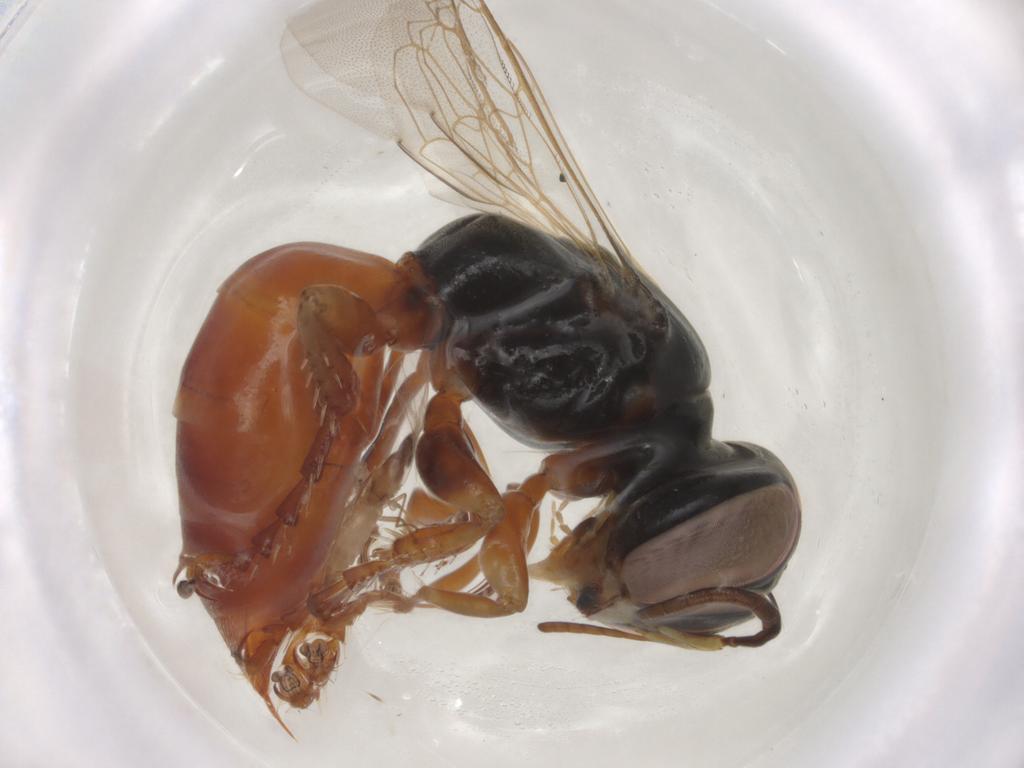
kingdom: Animalia
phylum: Arthropoda
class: Insecta
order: Hymenoptera
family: Crabronidae
